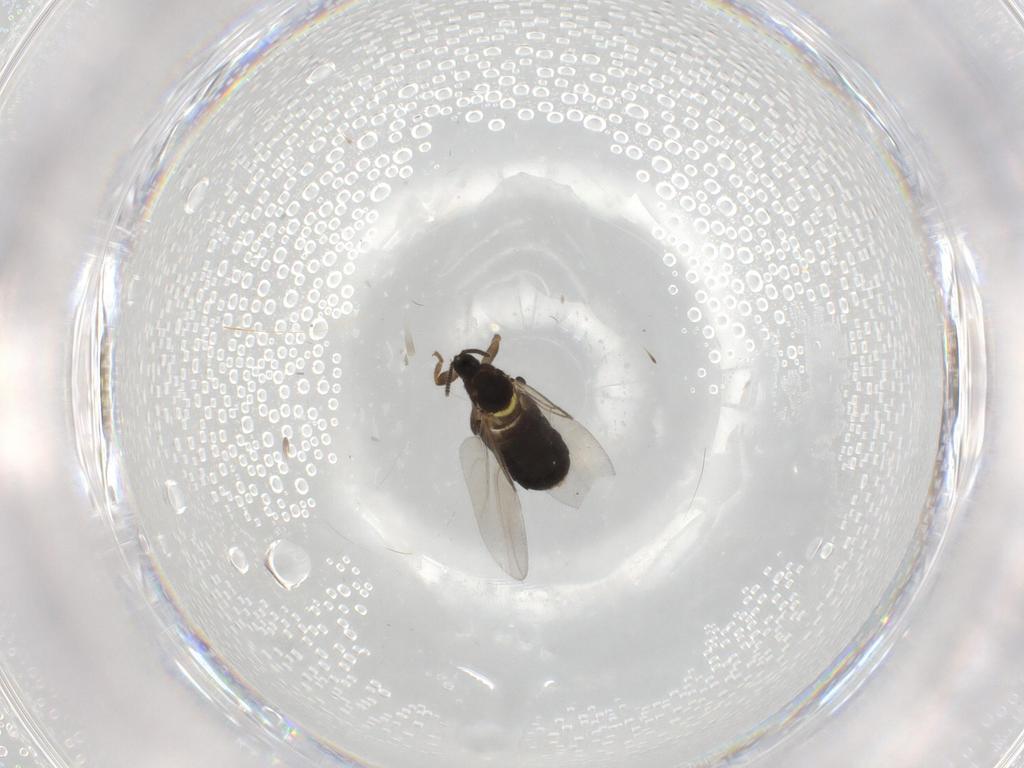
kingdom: Animalia
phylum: Arthropoda
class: Insecta
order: Diptera
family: Scatopsidae
